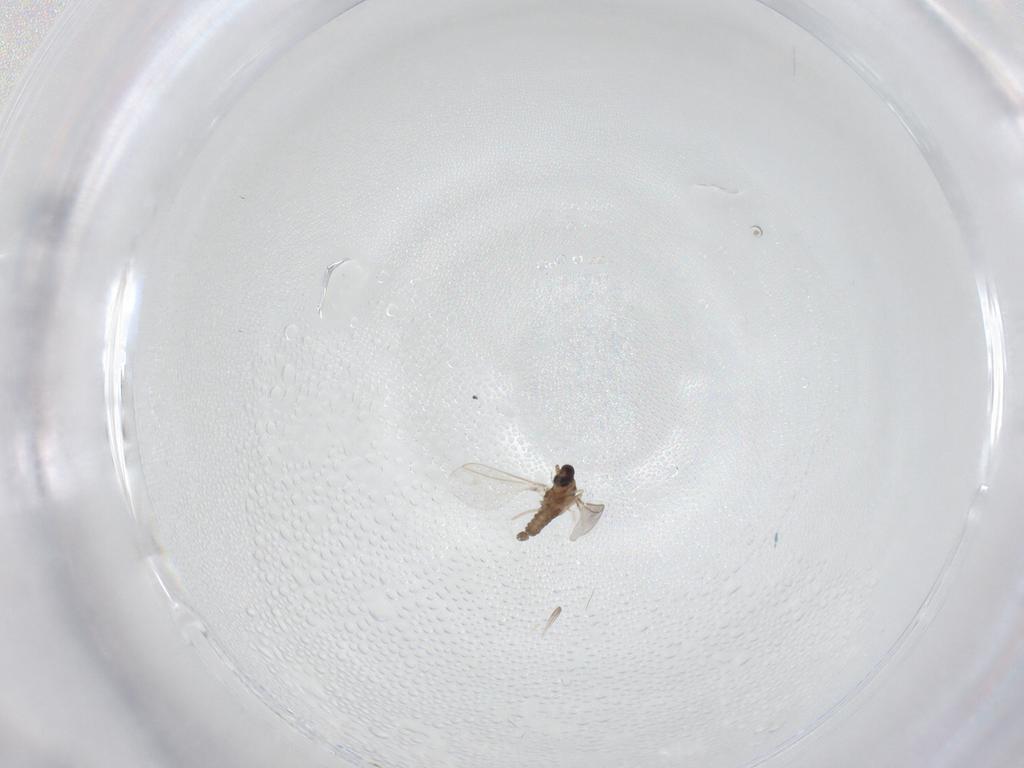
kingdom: Animalia
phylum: Arthropoda
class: Insecta
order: Diptera
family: Cecidomyiidae
